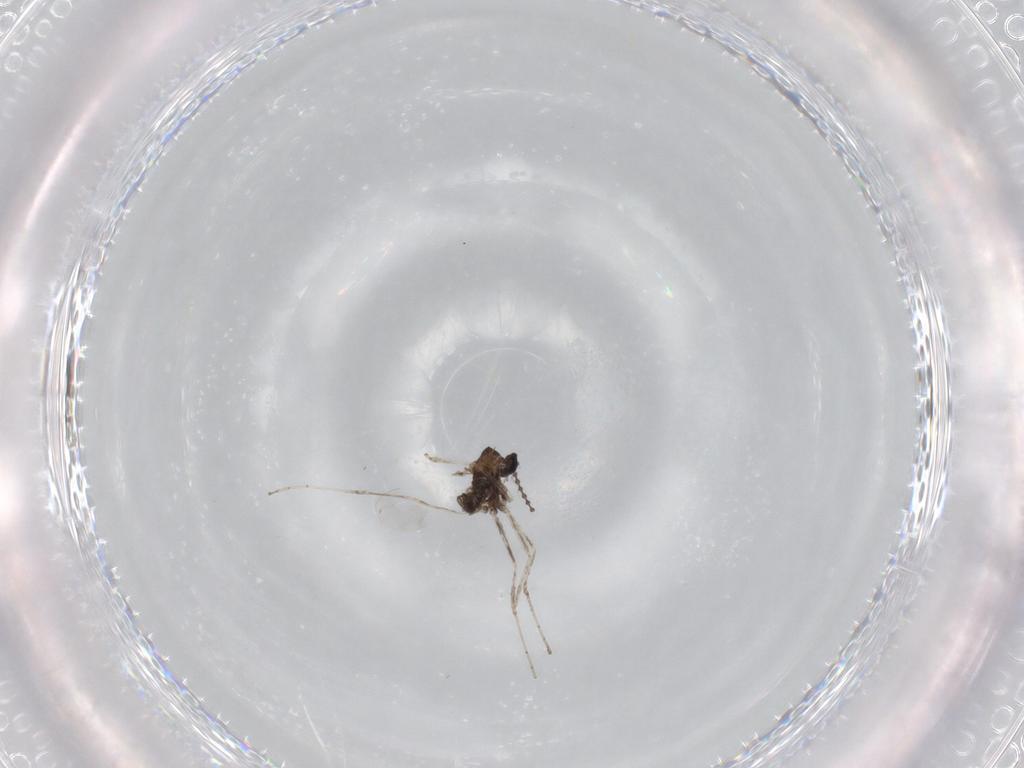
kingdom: Animalia
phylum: Arthropoda
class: Insecta
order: Diptera
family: Cecidomyiidae
